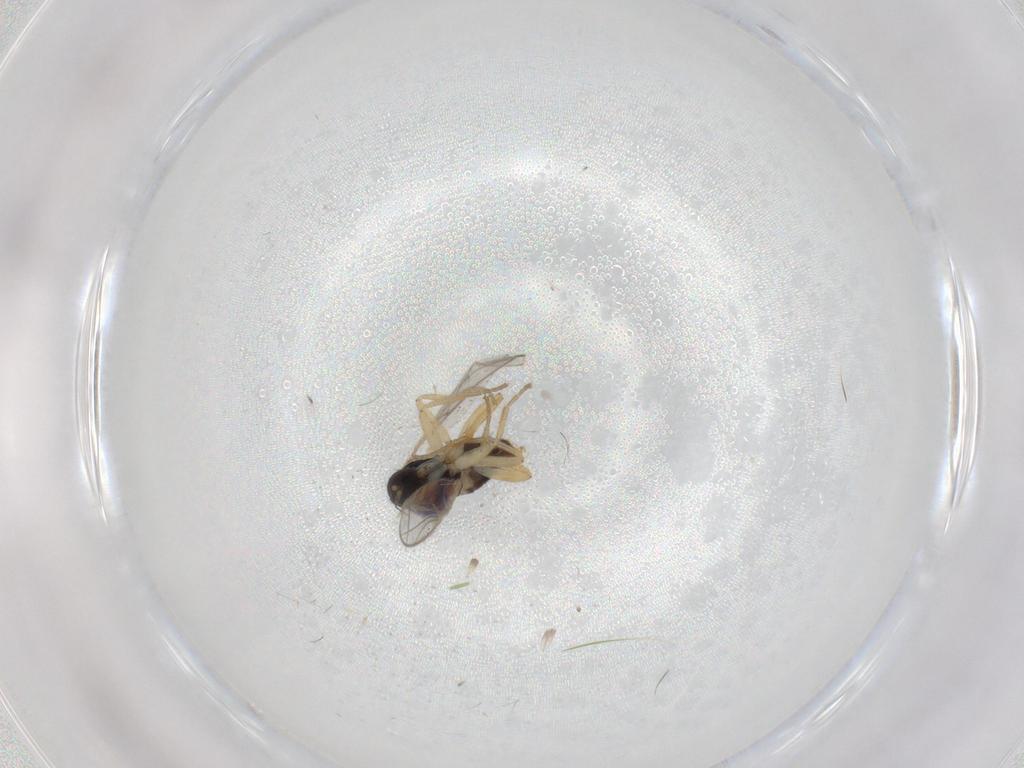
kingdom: Animalia
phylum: Arthropoda
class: Insecta
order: Diptera
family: Hybotidae
